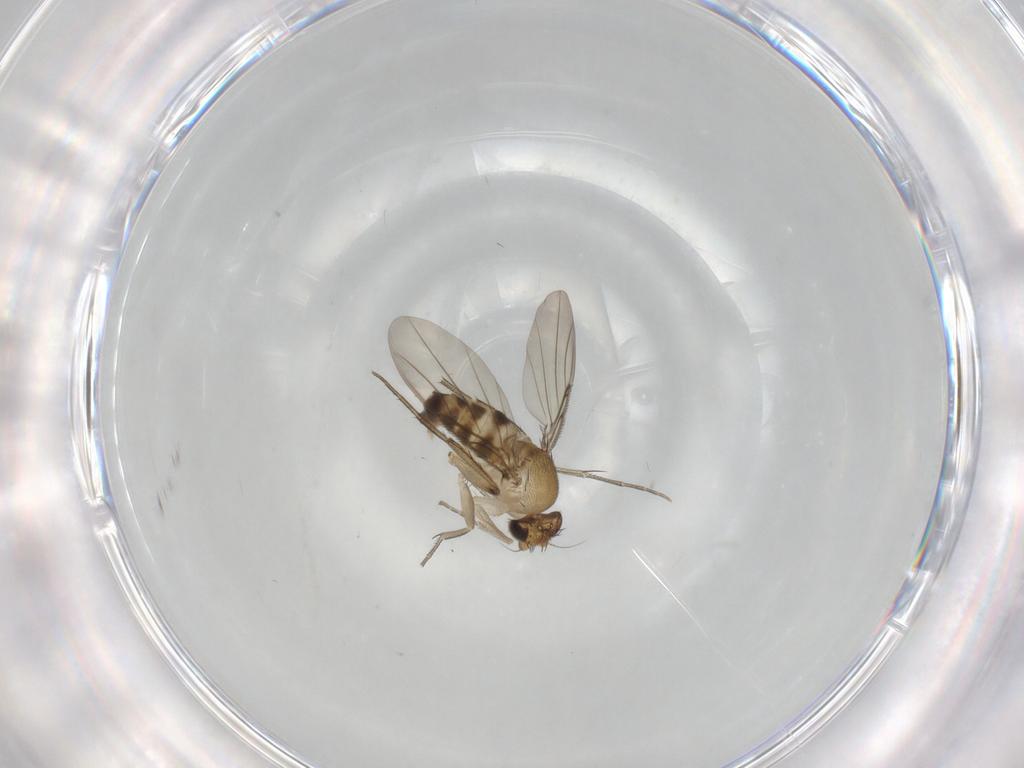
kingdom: Animalia
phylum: Arthropoda
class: Insecta
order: Diptera
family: Phoridae
